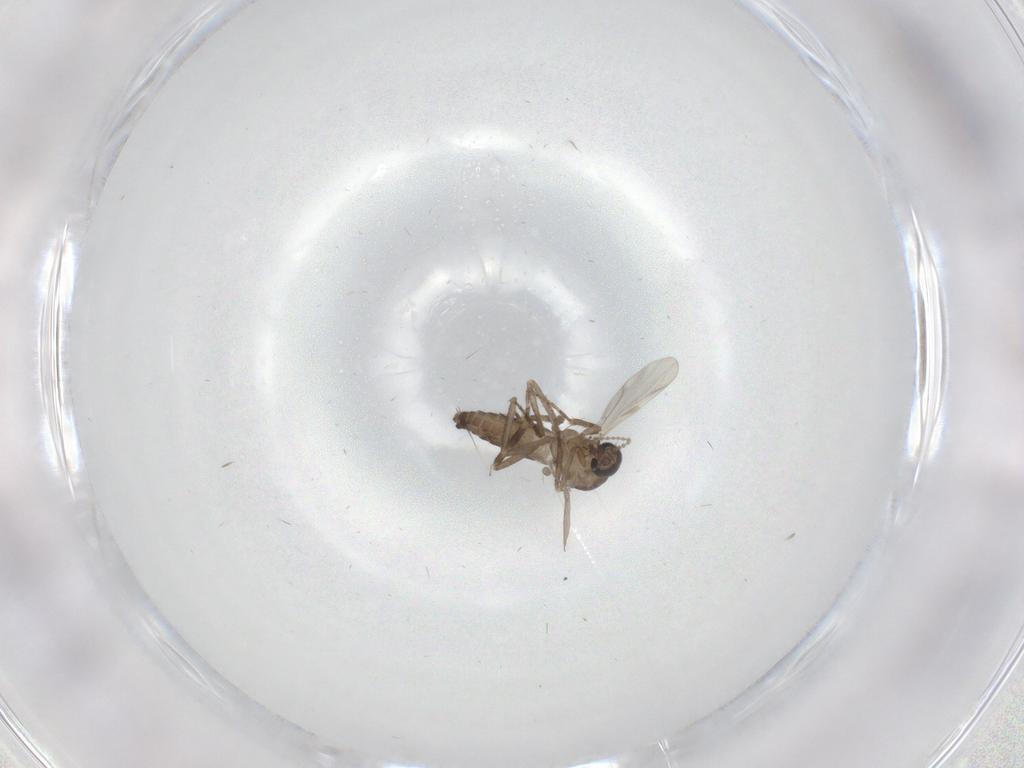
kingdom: Animalia
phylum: Arthropoda
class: Insecta
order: Diptera
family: Ceratopogonidae
